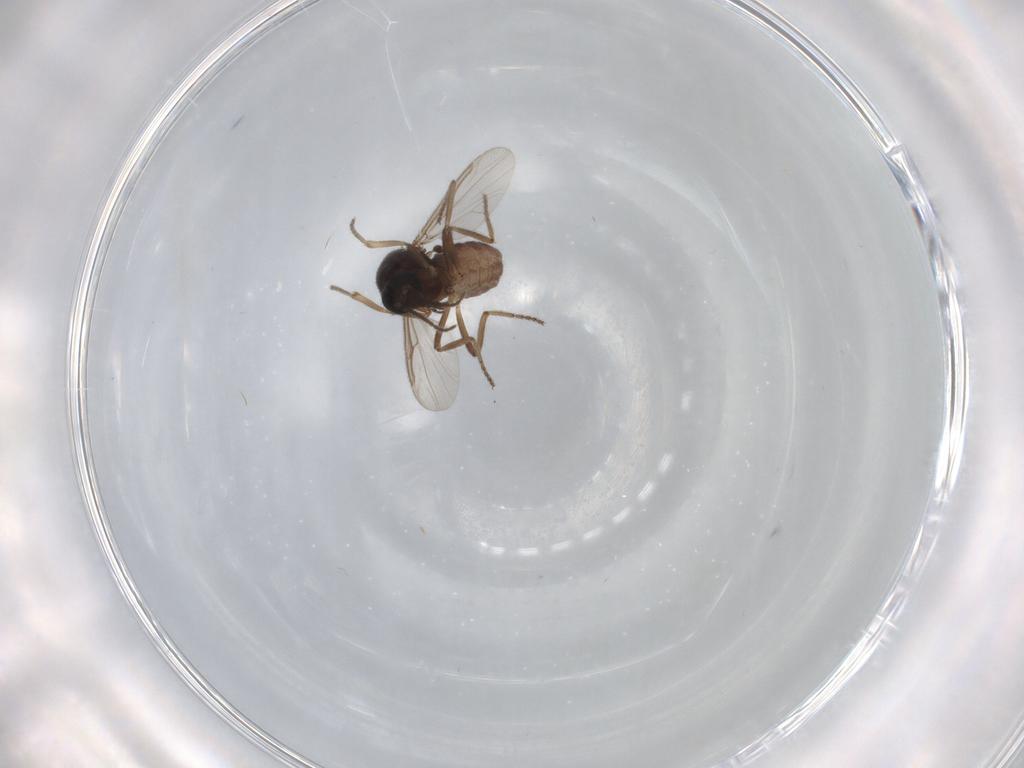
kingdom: Animalia
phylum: Arthropoda
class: Insecta
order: Diptera
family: Ceratopogonidae
